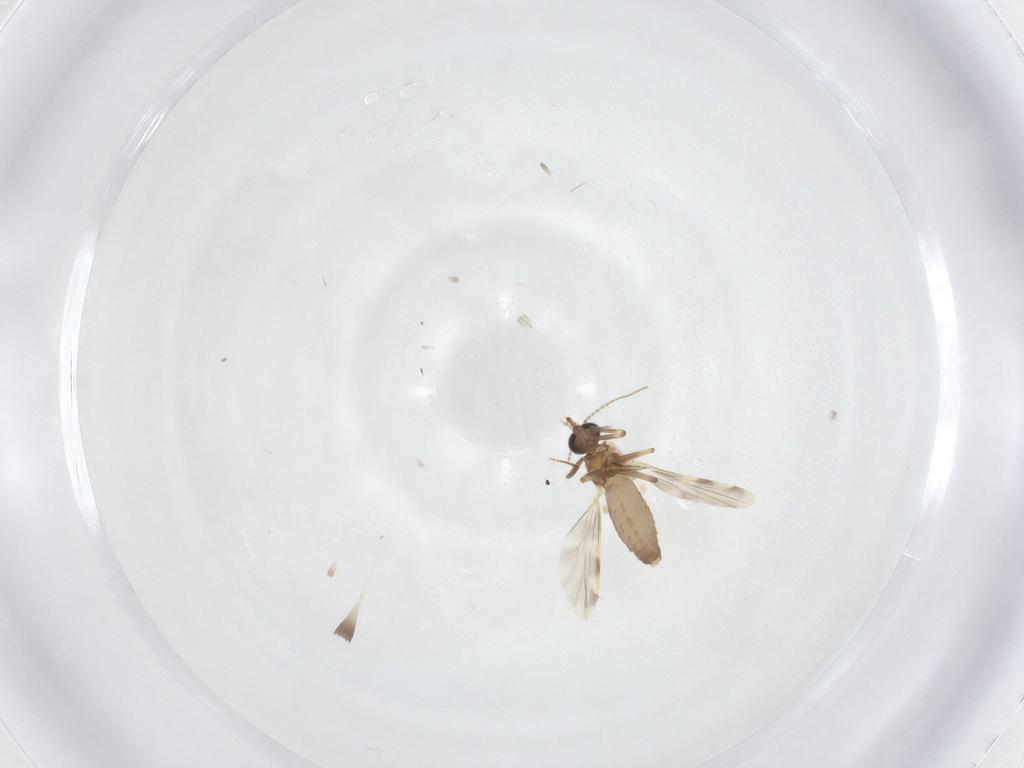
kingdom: Animalia
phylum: Arthropoda
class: Insecta
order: Diptera
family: Ceratopogonidae
